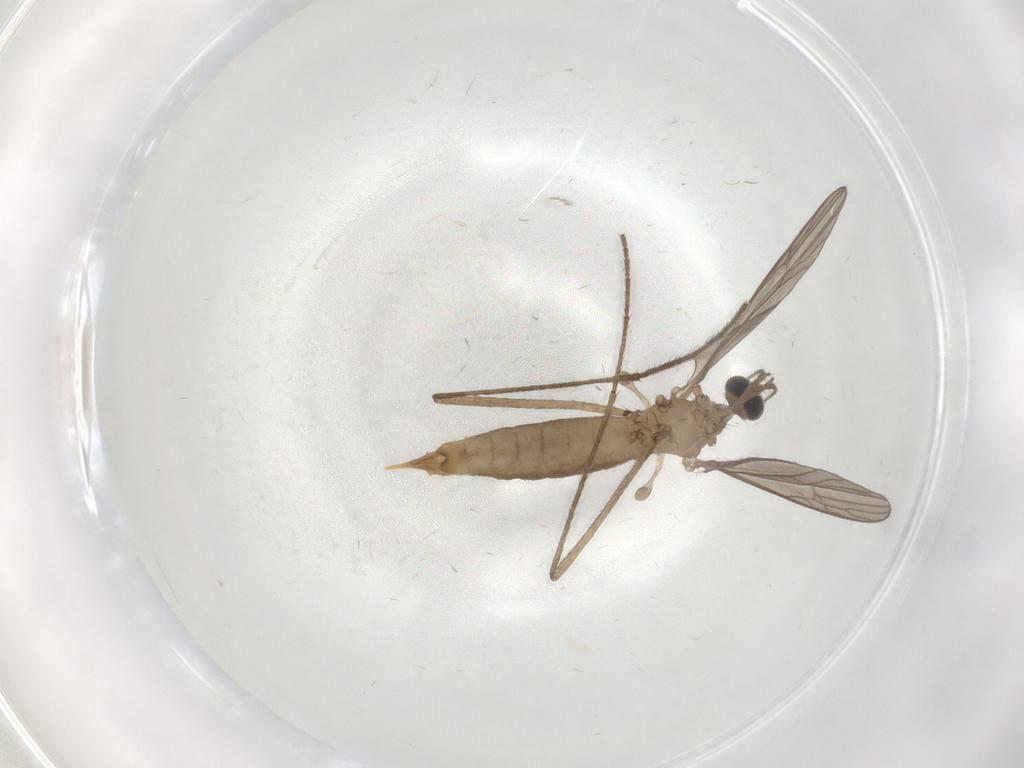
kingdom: Animalia
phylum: Arthropoda
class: Insecta
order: Diptera
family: Limoniidae
